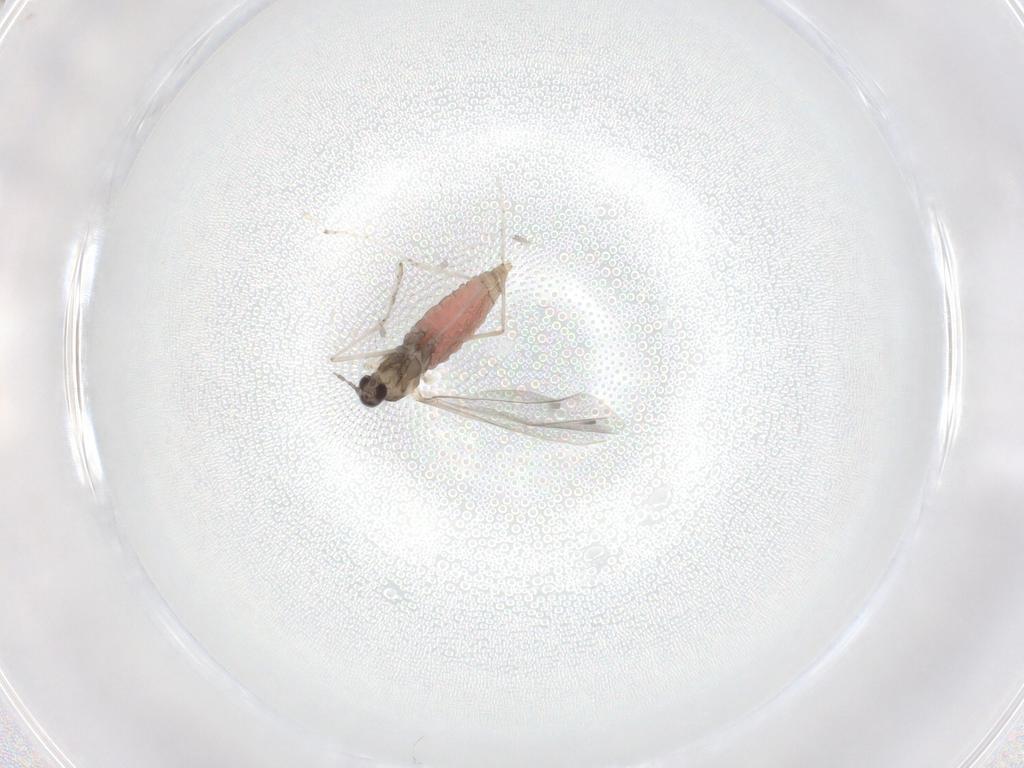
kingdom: Animalia
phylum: Arthropoda
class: Insecta
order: Diptera
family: Cecidomyiidae
